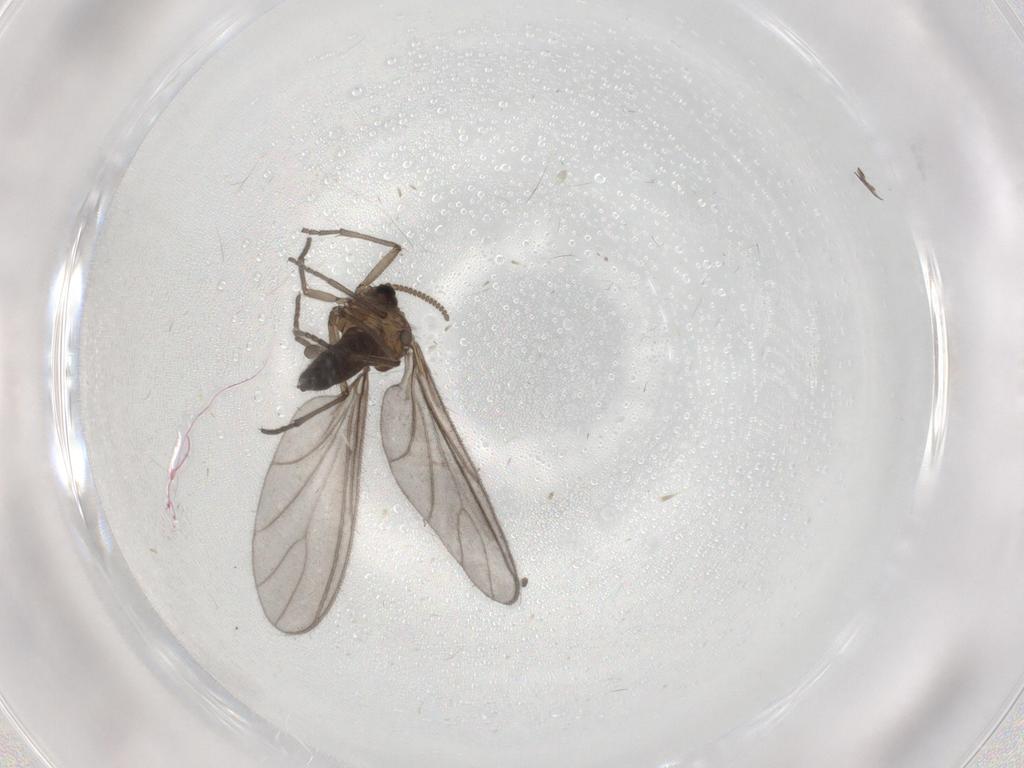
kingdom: Animalia
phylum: Arthropoda
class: Insecta
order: Diptera
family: Sciaridae
